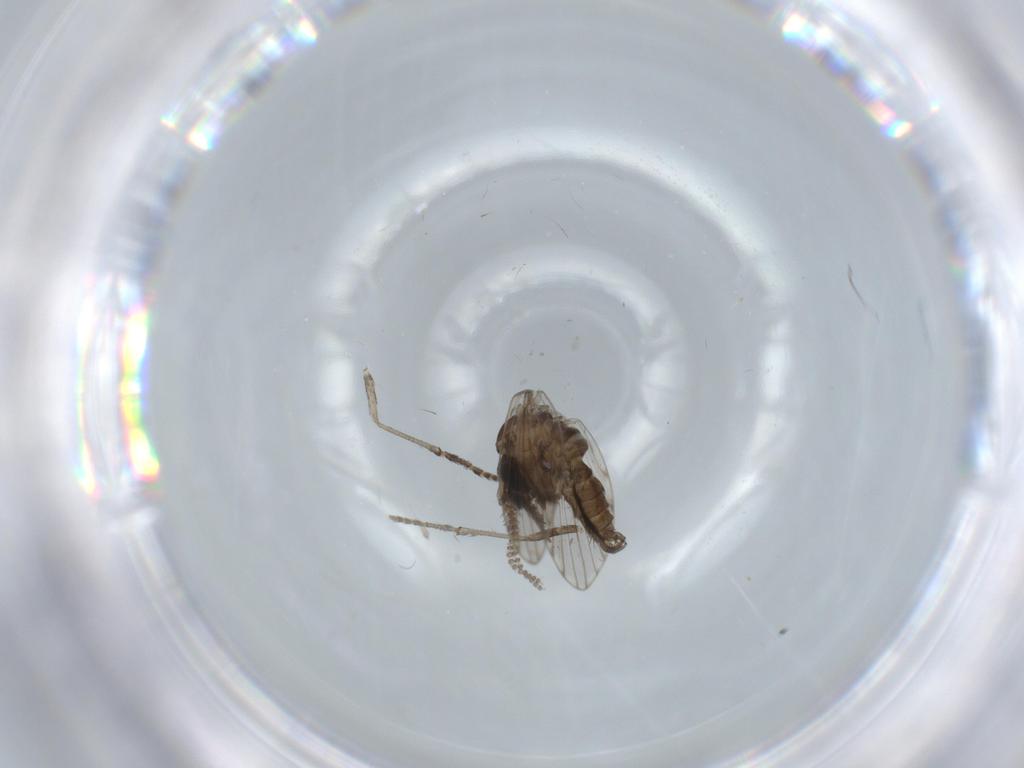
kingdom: Animalia
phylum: Arthropoda
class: Insecta
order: Diptera
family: Psychodidae
